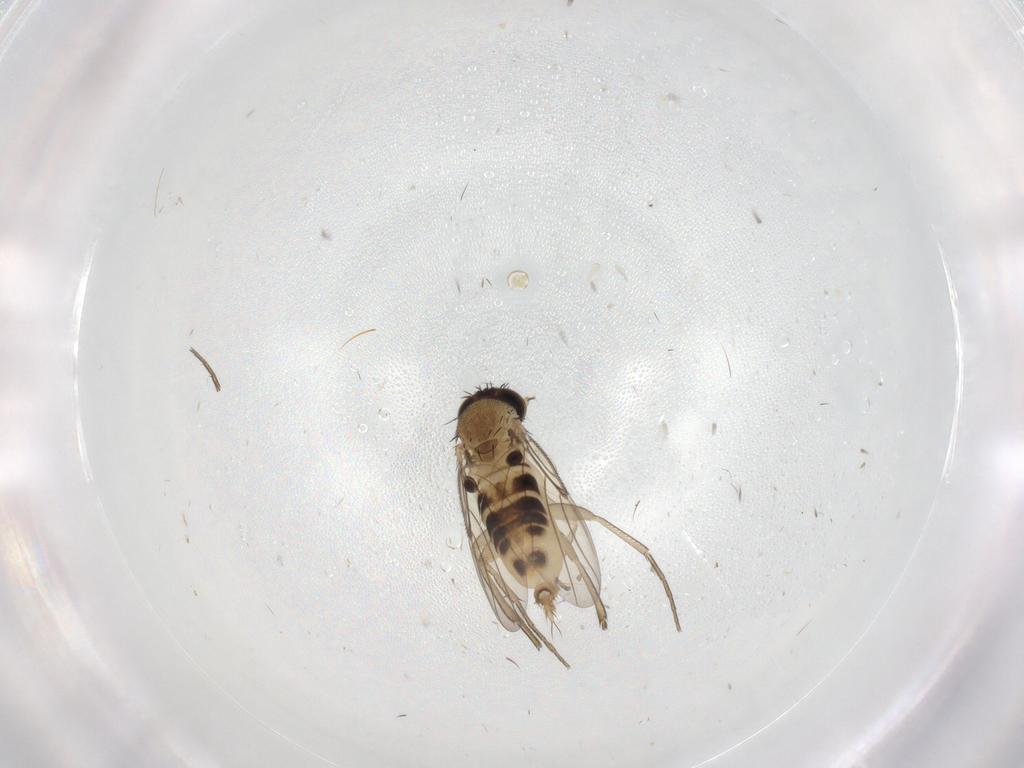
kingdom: Animalia
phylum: Arthropoda
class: Insecta
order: Diptera
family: Phoridae
